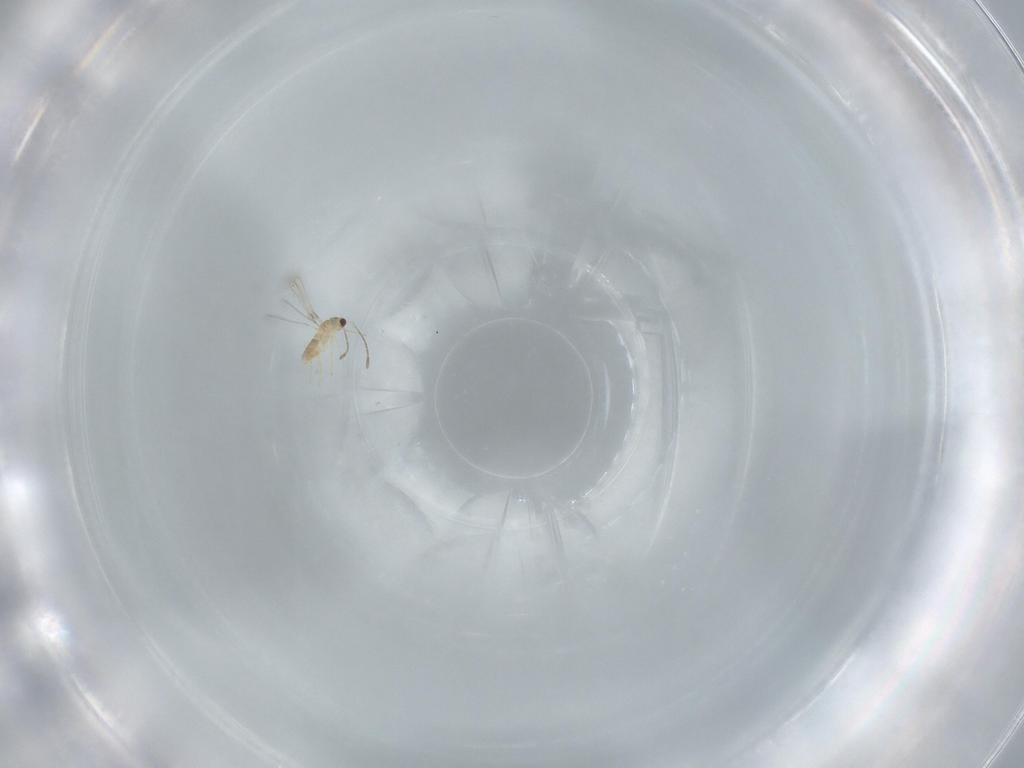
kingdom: Animalia
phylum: Arthropoda
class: Insecta
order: Hymenoptera
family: Mymaridae
